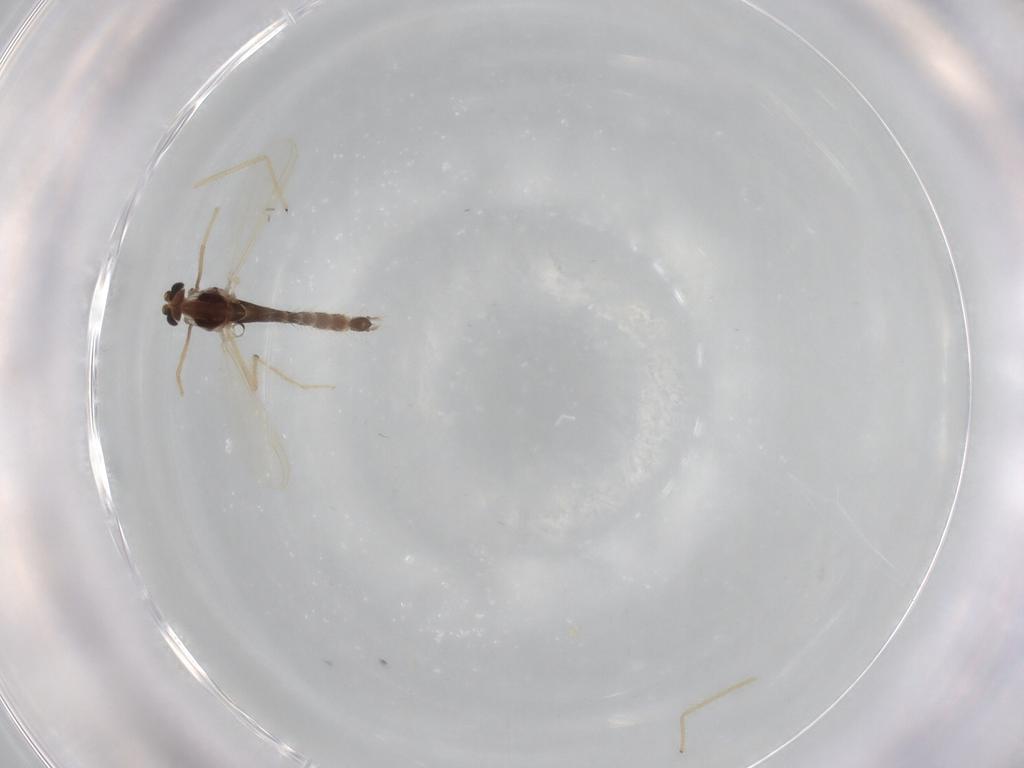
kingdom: Animalia
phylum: Arthropoda
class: Insecta
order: Diptera
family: Chironomidae
